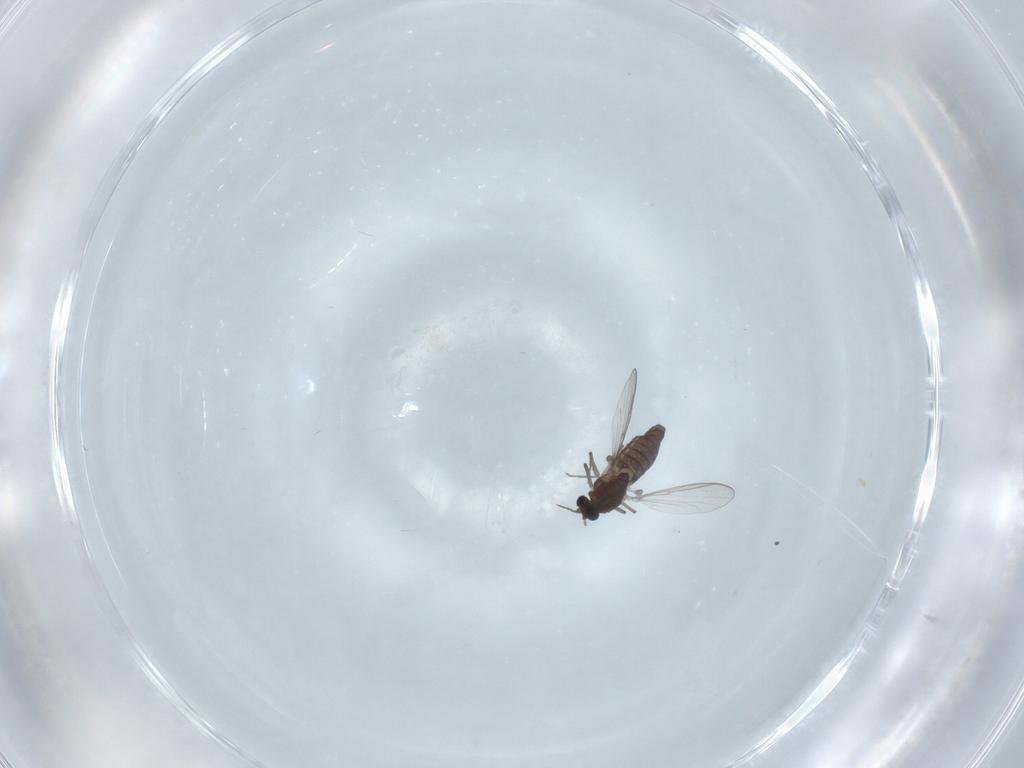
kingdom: Animalia
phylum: Arthropoda
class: Insecta
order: Diptera
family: Chironomidae
